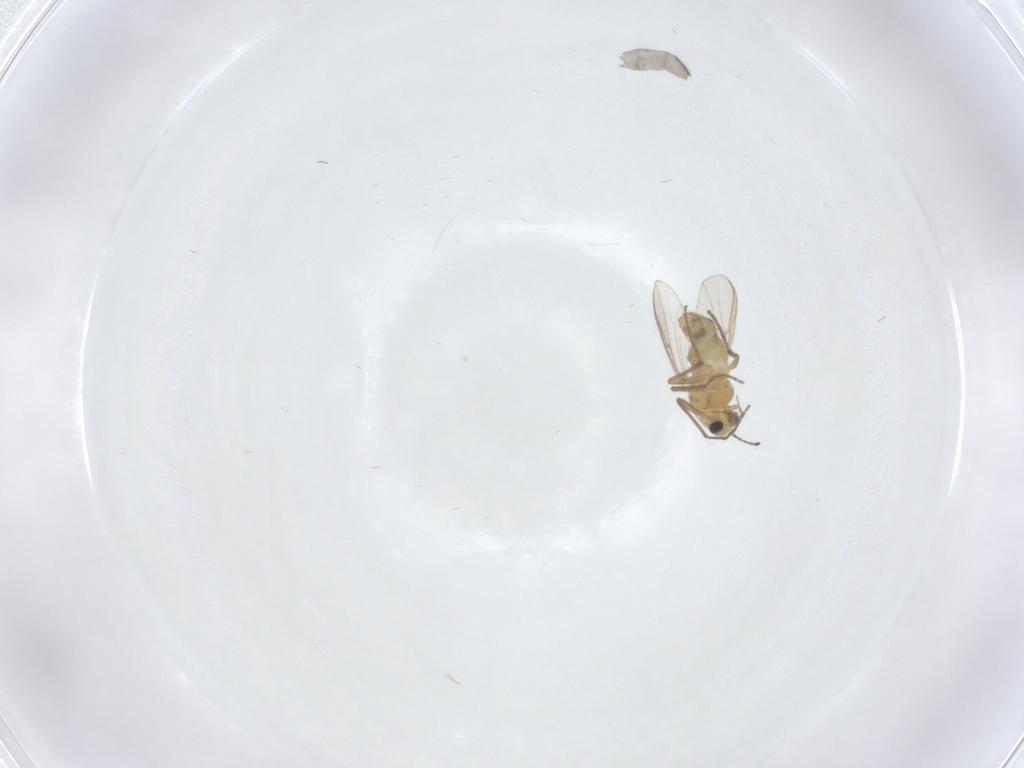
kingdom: Animalia
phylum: Arthropoda
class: Insecta
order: Diptera
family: Chironomidae
